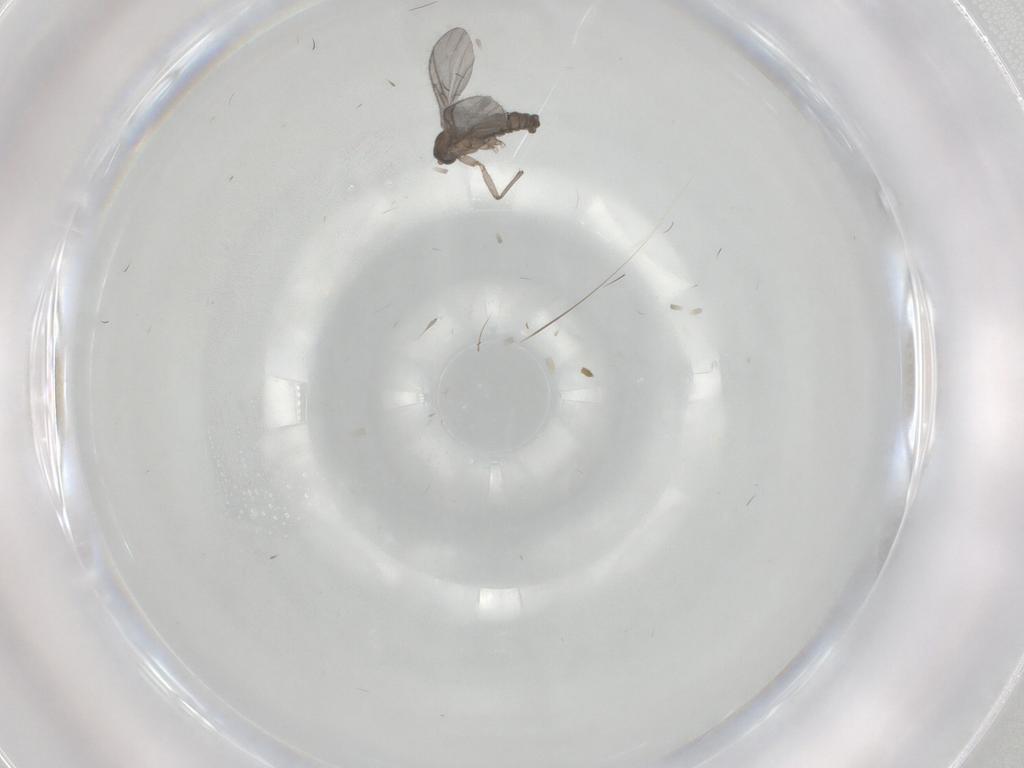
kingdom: Animalia
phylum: Arthropoda
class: Insecta
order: Diptera
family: Sciaridae
